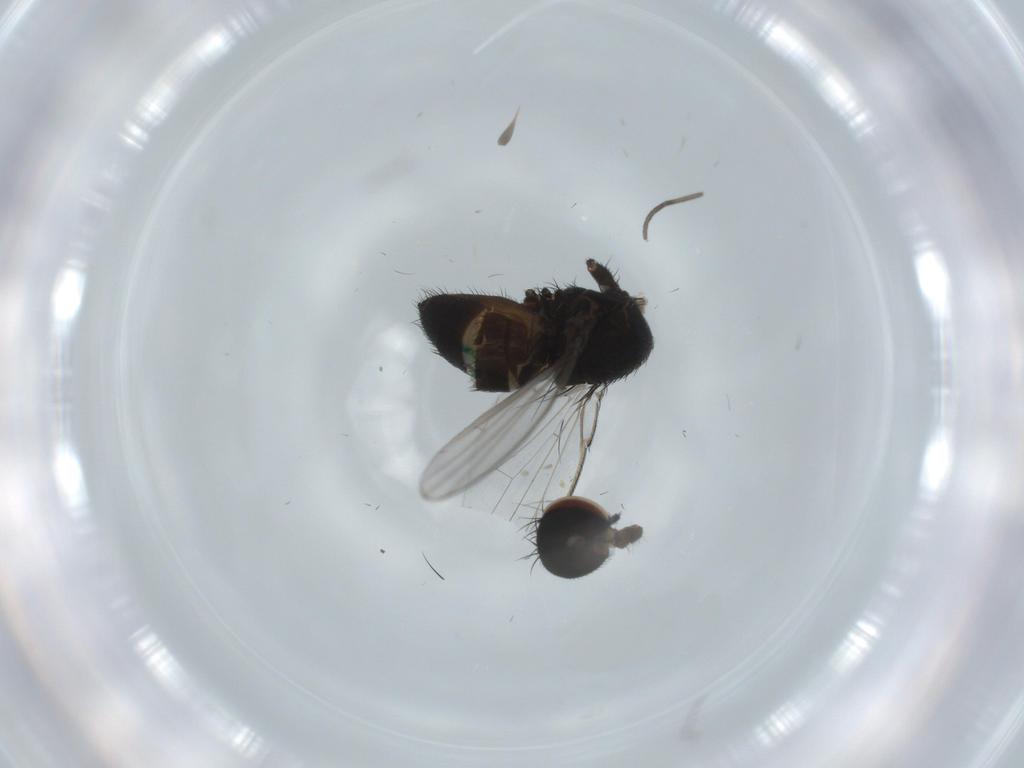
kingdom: Animalia
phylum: Arthropoda
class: Insecta
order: Diptera
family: Milichiidae
